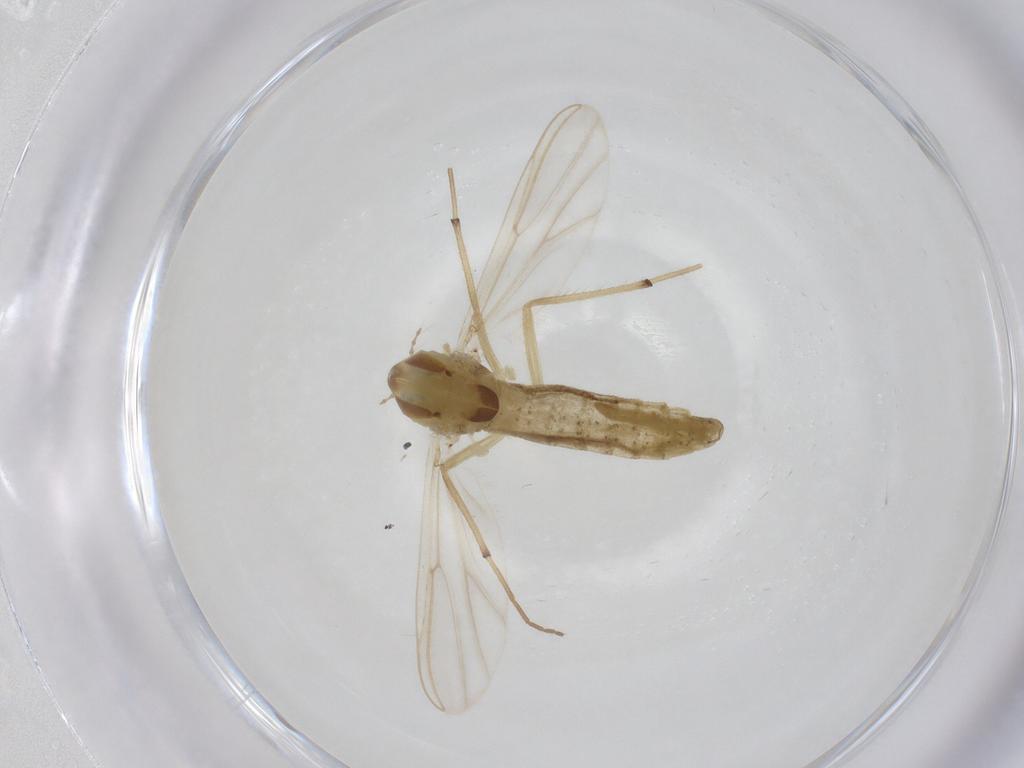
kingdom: Animalia
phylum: Arthropoda
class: Insecta
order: Diptera
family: Chironomidae
